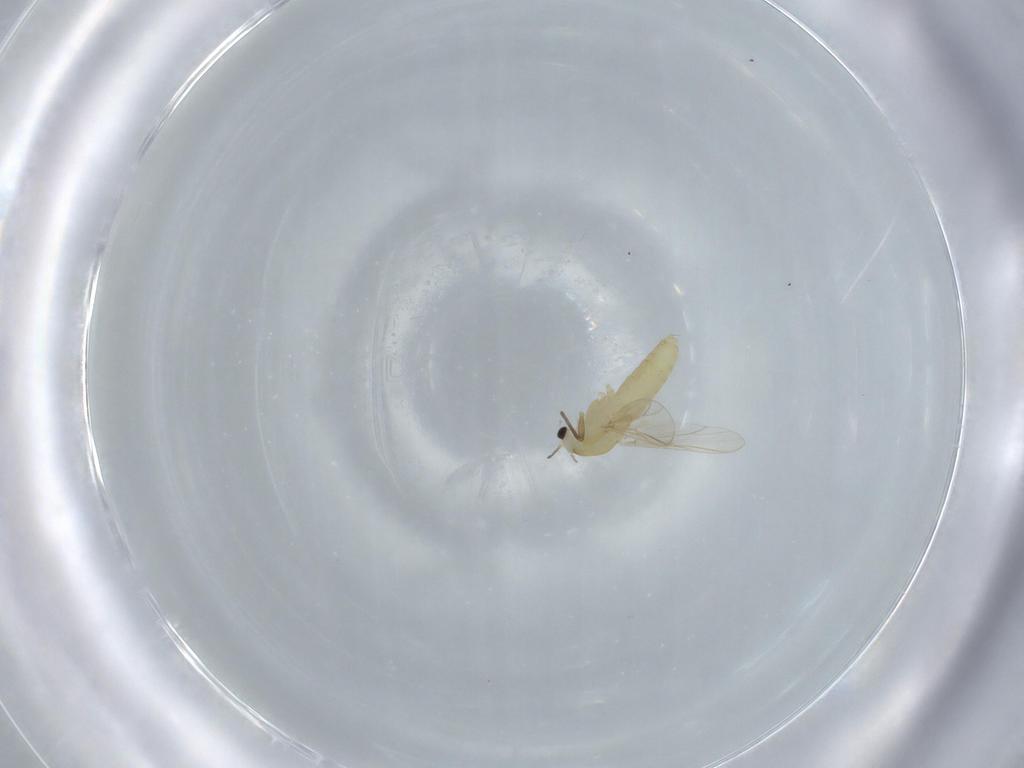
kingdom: Animalia
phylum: Arthropoda
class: Insecta
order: Diptera
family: Chironomidae
